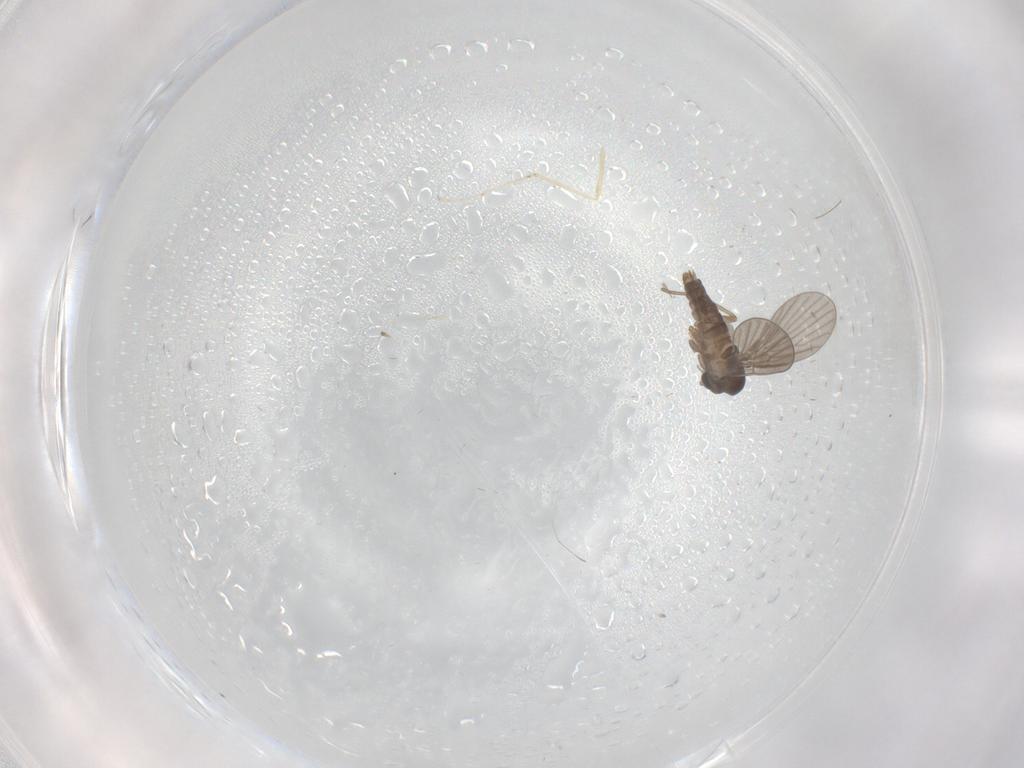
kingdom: Animalia
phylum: Arthropoda
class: Insecta
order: Diptera
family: Cecidomyiidae
